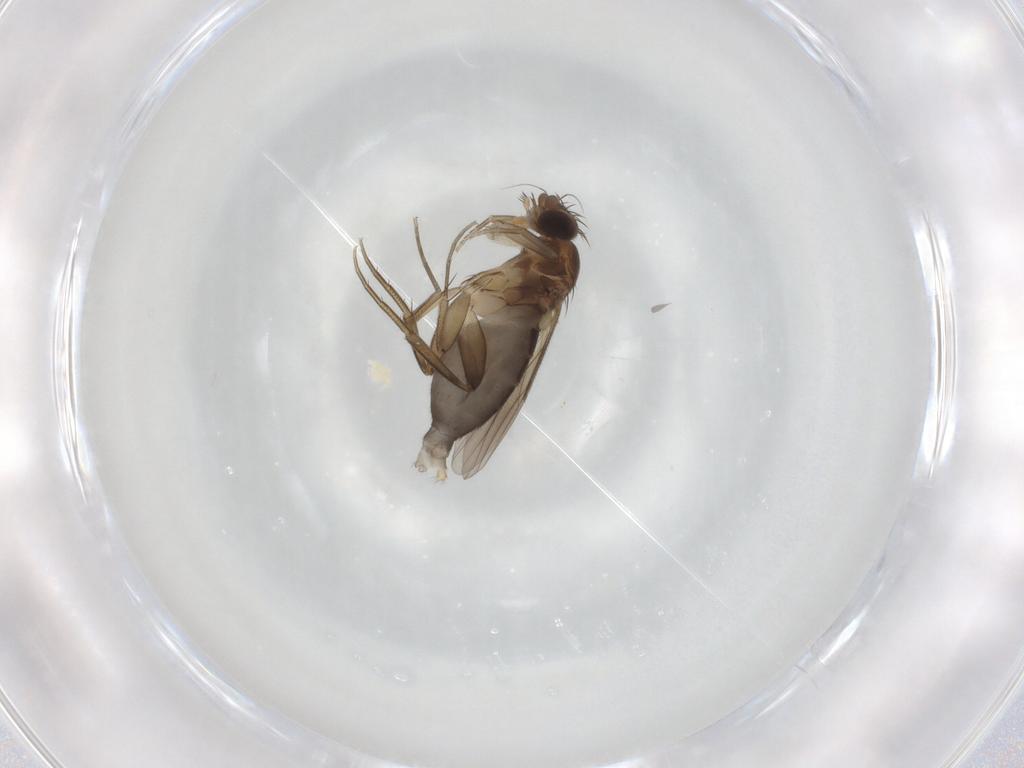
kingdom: Animalia
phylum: Arthropoda
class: Insecta
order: Diptera
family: Phoridae
